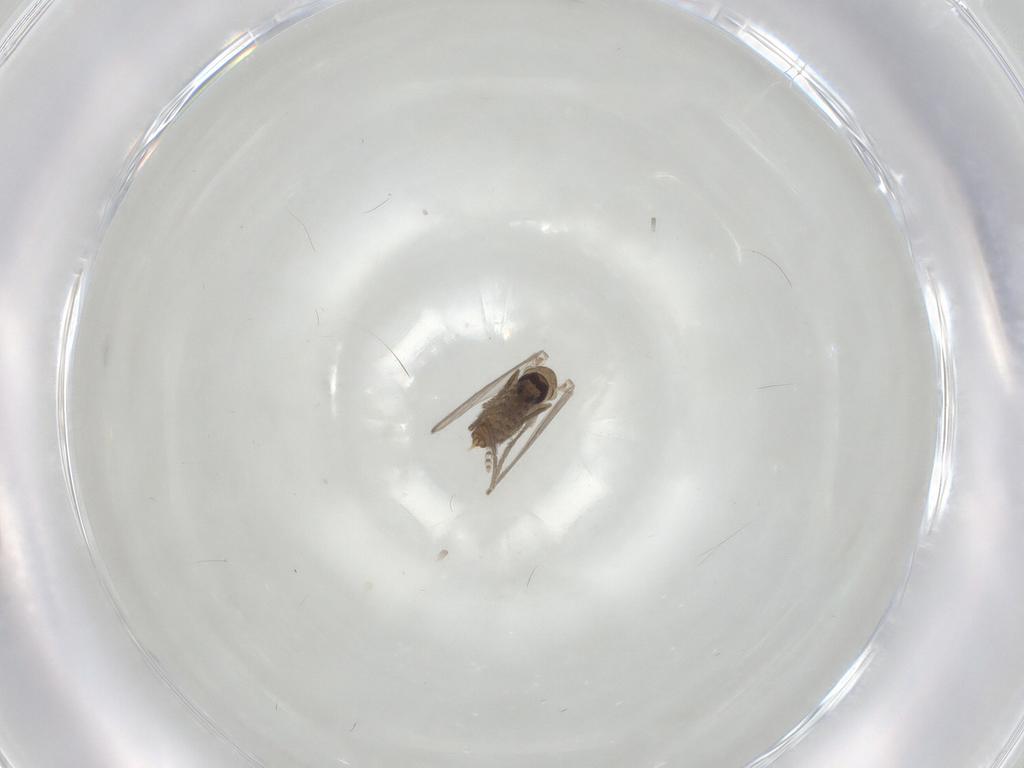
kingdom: Animalia
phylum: Arthropoda
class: Insecta
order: Diptera
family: Psychodidae
